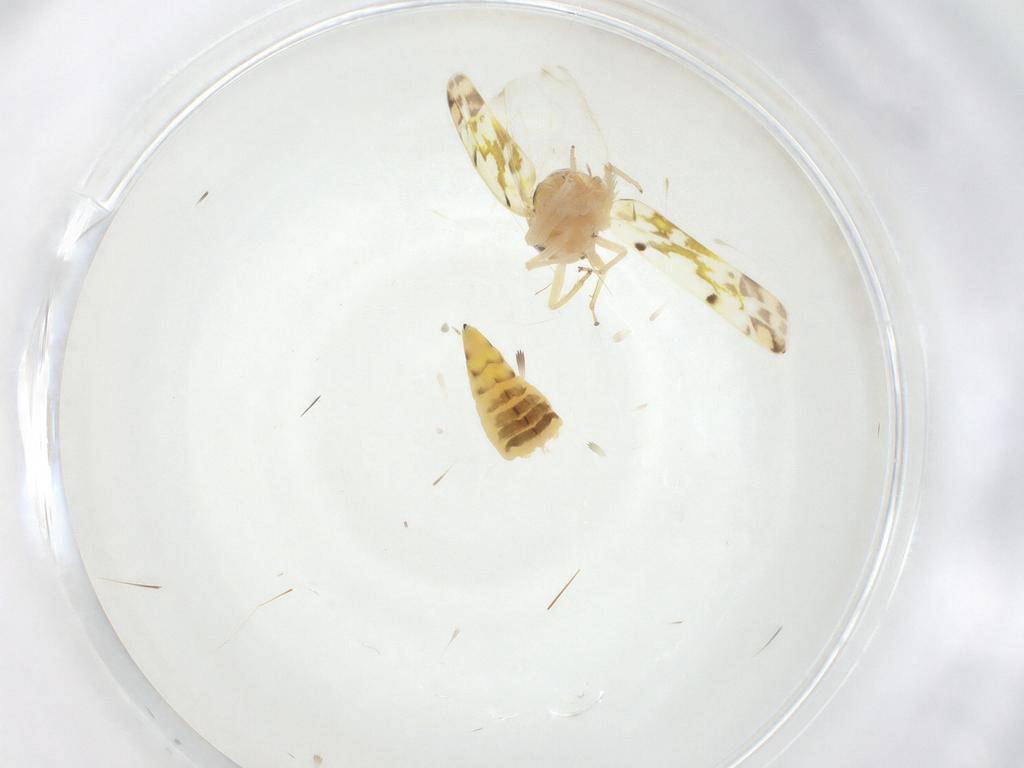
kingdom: Animalia
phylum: Arthropoda
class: Insecta
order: Hemiptera
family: Cicadellidae
